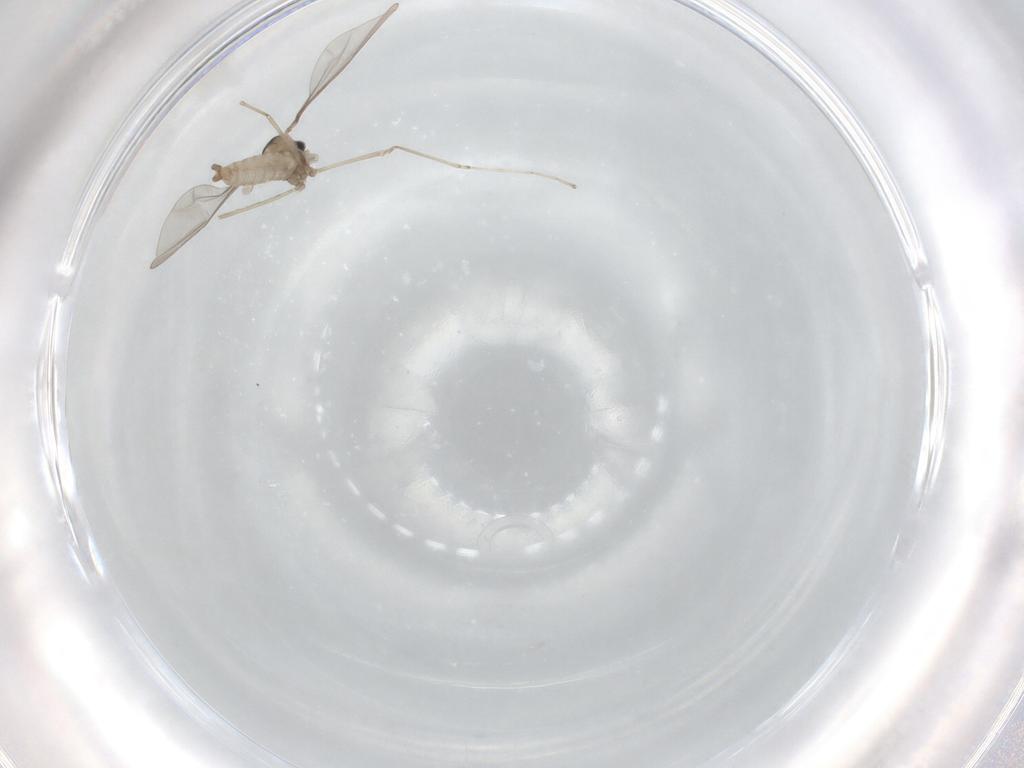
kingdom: Animalia
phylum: Arthropoda
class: Insecta
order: Diptera
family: Cecidomyiidae
